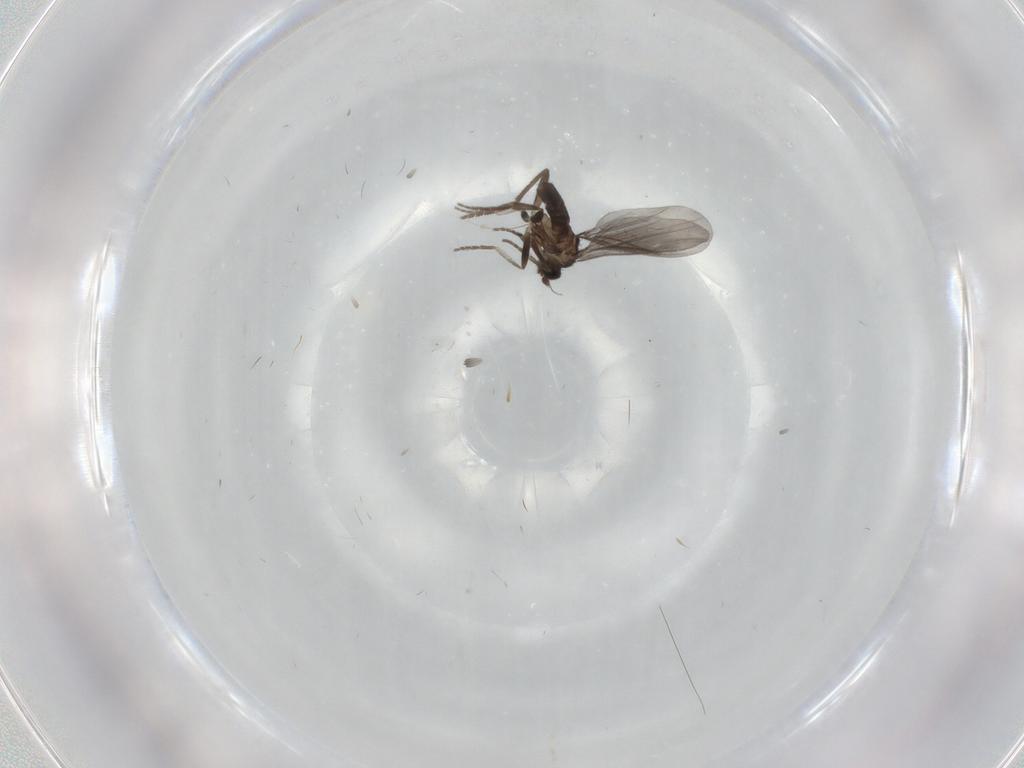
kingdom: Animalia
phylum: Arthropoda
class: Insecta
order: Diptera
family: Phoridae
